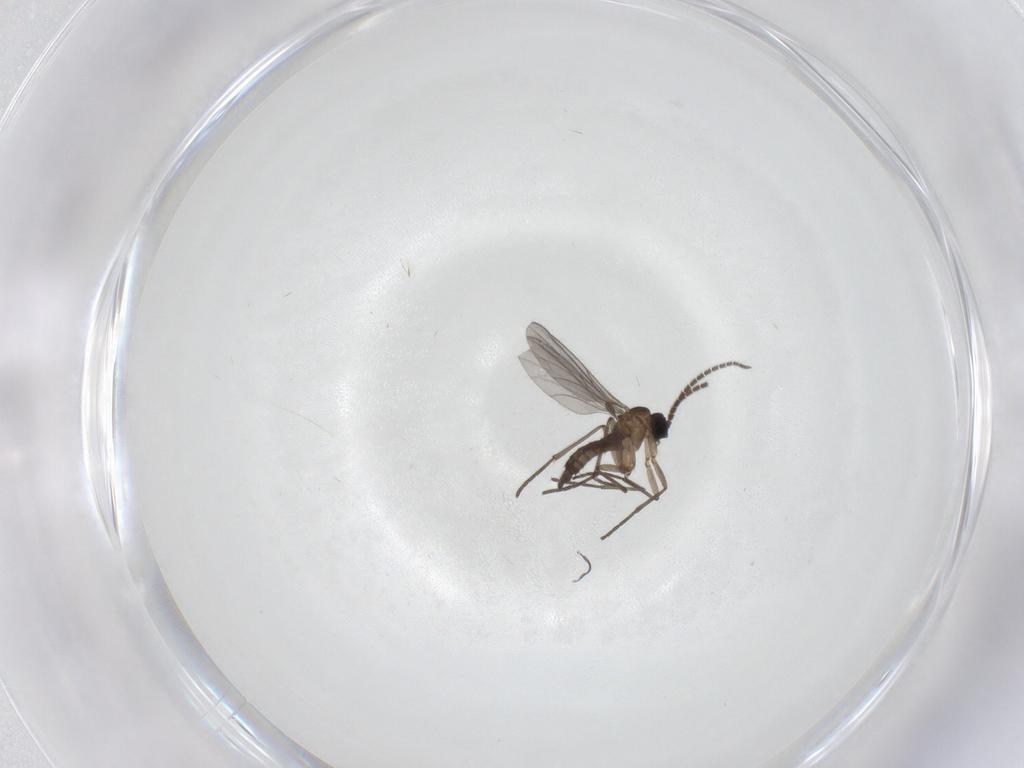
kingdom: Animalia
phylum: Arthropoda
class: Insecta
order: Diptera
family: Sciaridae
